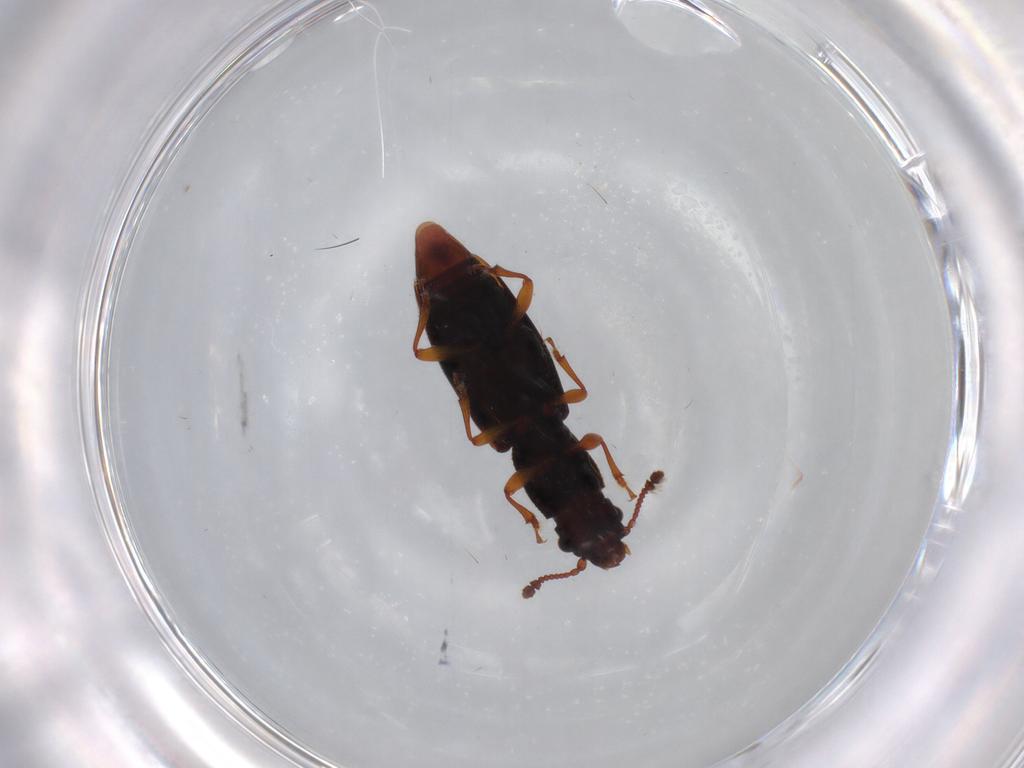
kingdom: Animalia
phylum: Arthropoda
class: Insecta
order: Coleoptera
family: Monotomidae
